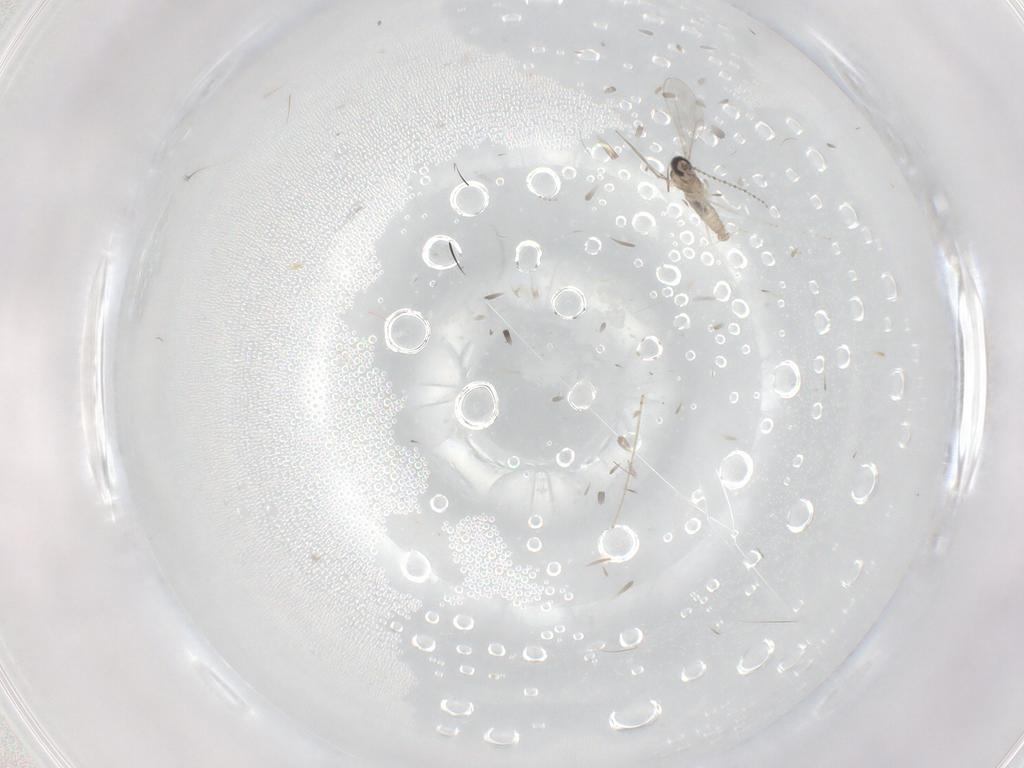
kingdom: Animalia
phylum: Arthropoda
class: Insecta
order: Diptera
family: Cecidomyiidae
